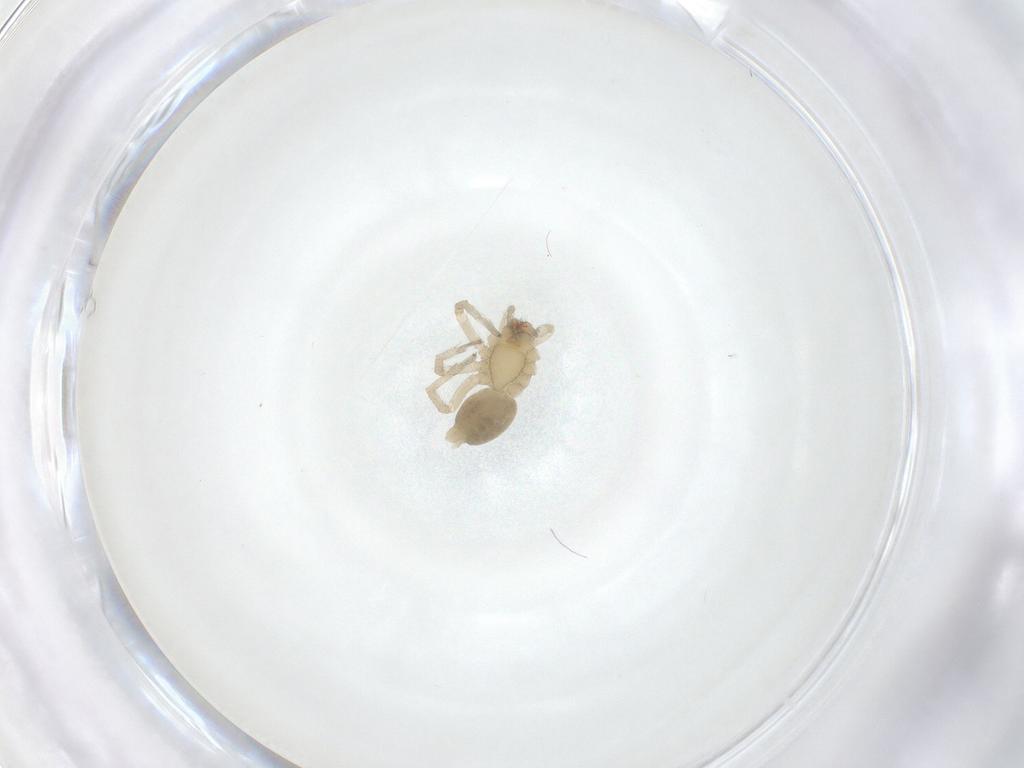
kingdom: Animalia
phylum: Arthropoda
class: Arachnida
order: Araneae
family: Anyphaenidae
